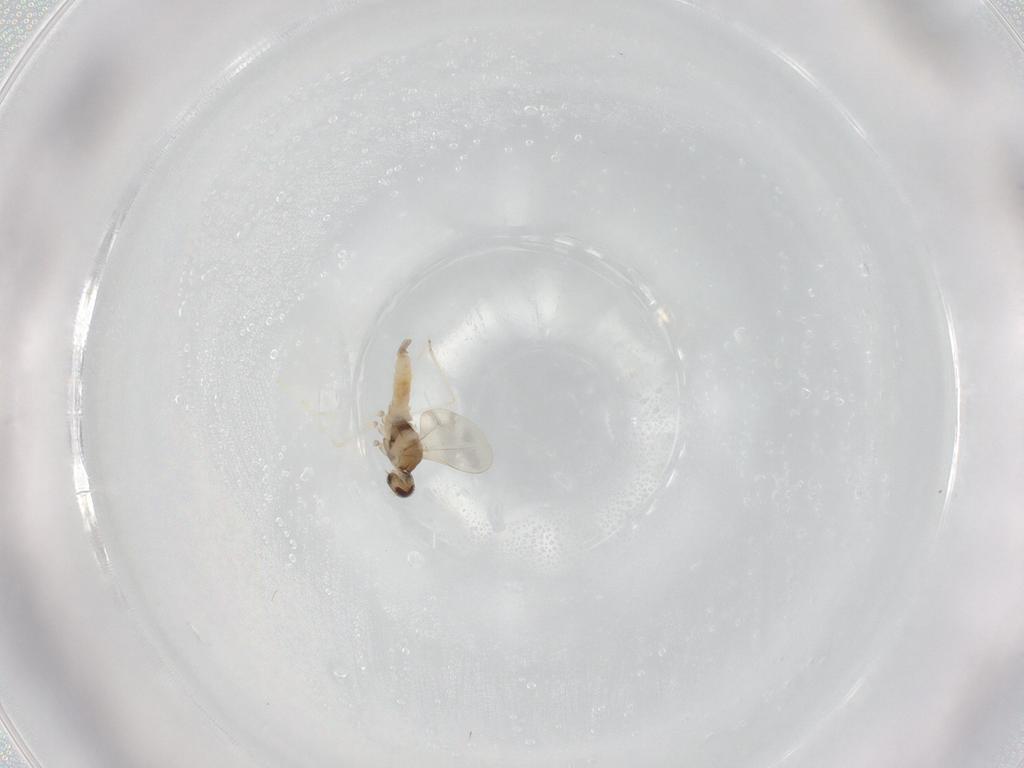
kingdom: Animalia
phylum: Arthropoda
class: Insecta
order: Diptera
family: Cecidomyiidae
